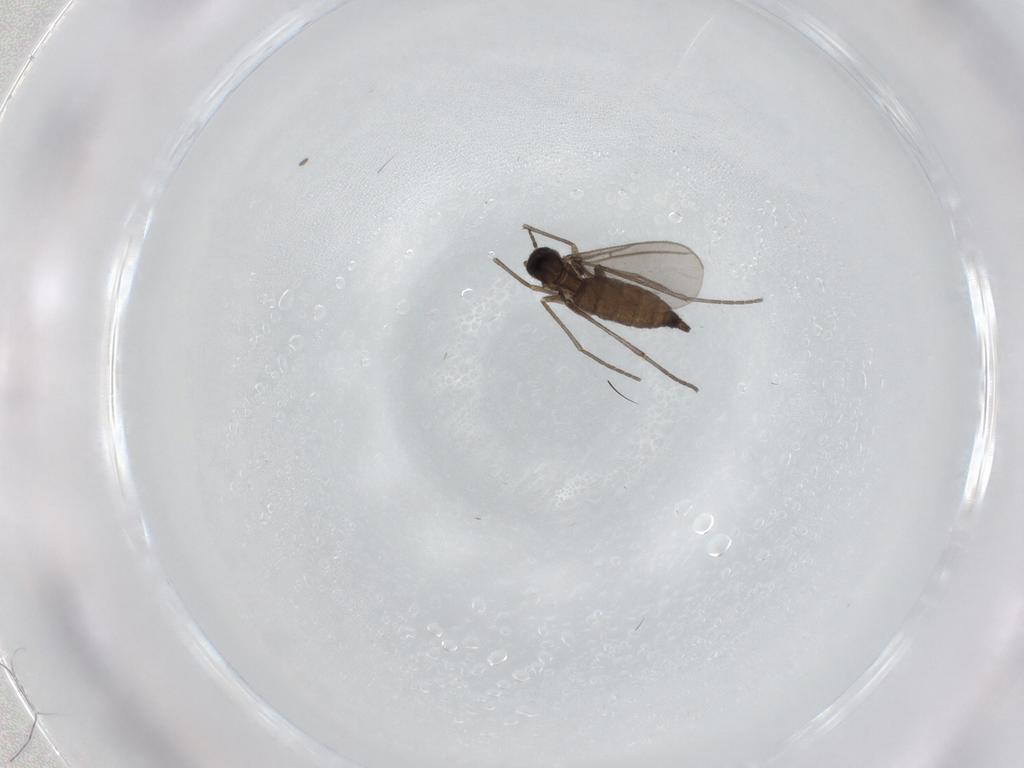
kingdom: Animalia
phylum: Arthropoda
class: Insecta
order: Diptera
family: Sciaridae
